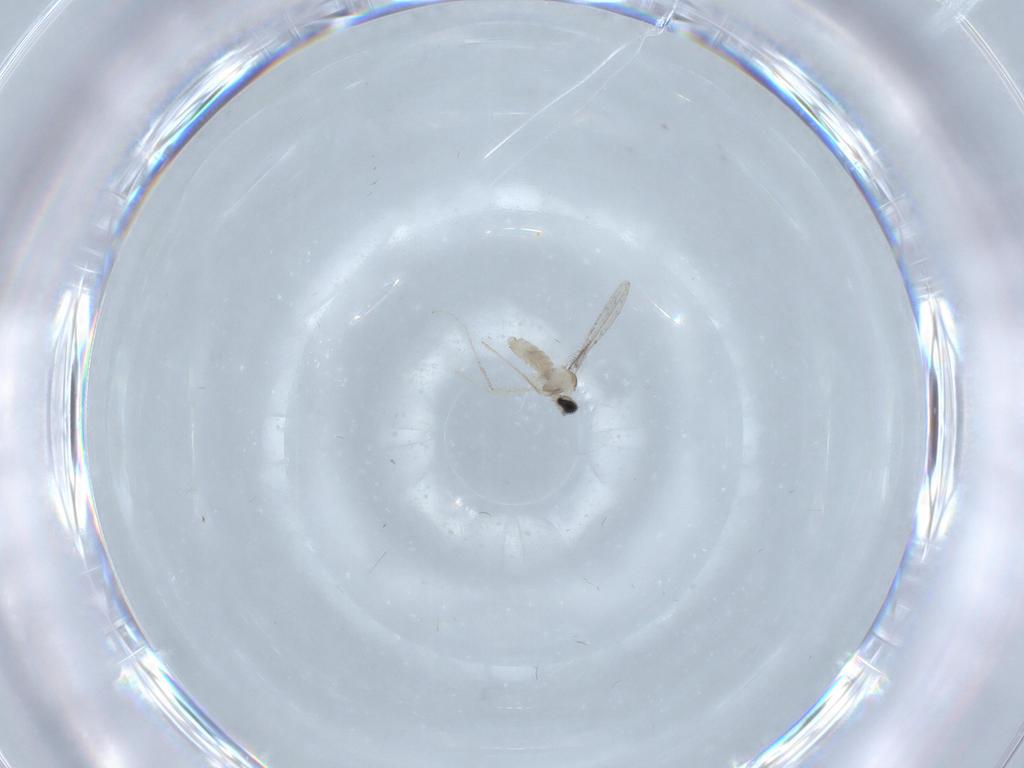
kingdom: Animalia
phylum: Arthropoda
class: Insecta
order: Diptera
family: Cecidomyiidae
